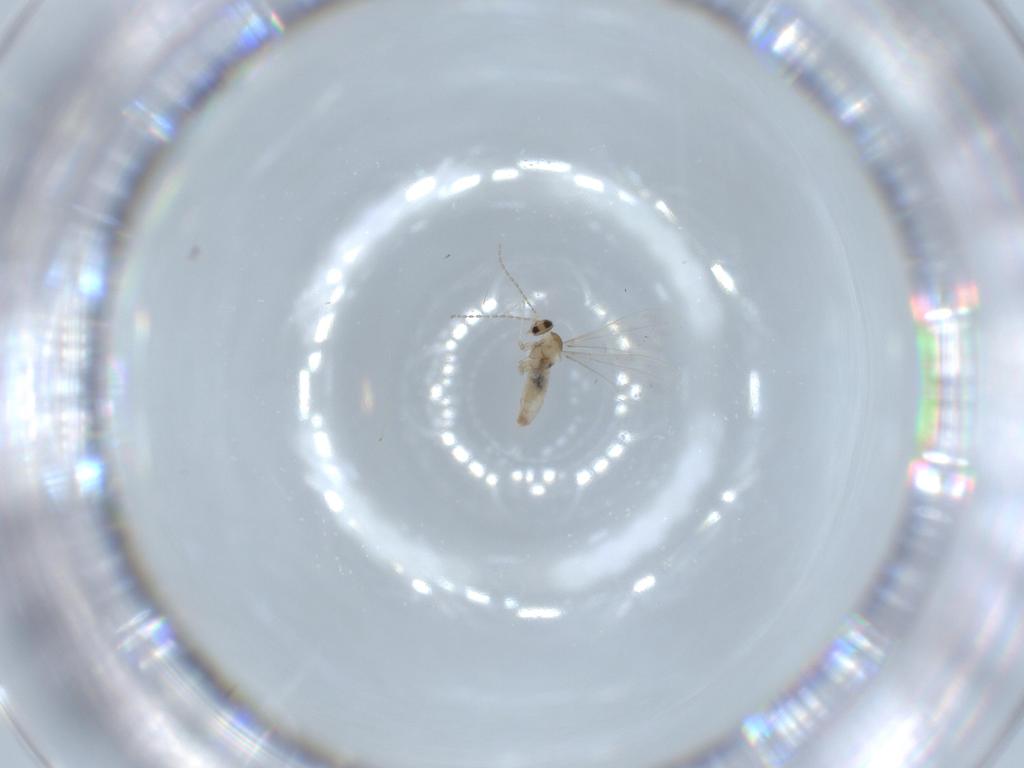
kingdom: Animalia
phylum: Arthropoda
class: Insecta
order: Diptera
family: Cecidomyiidae
